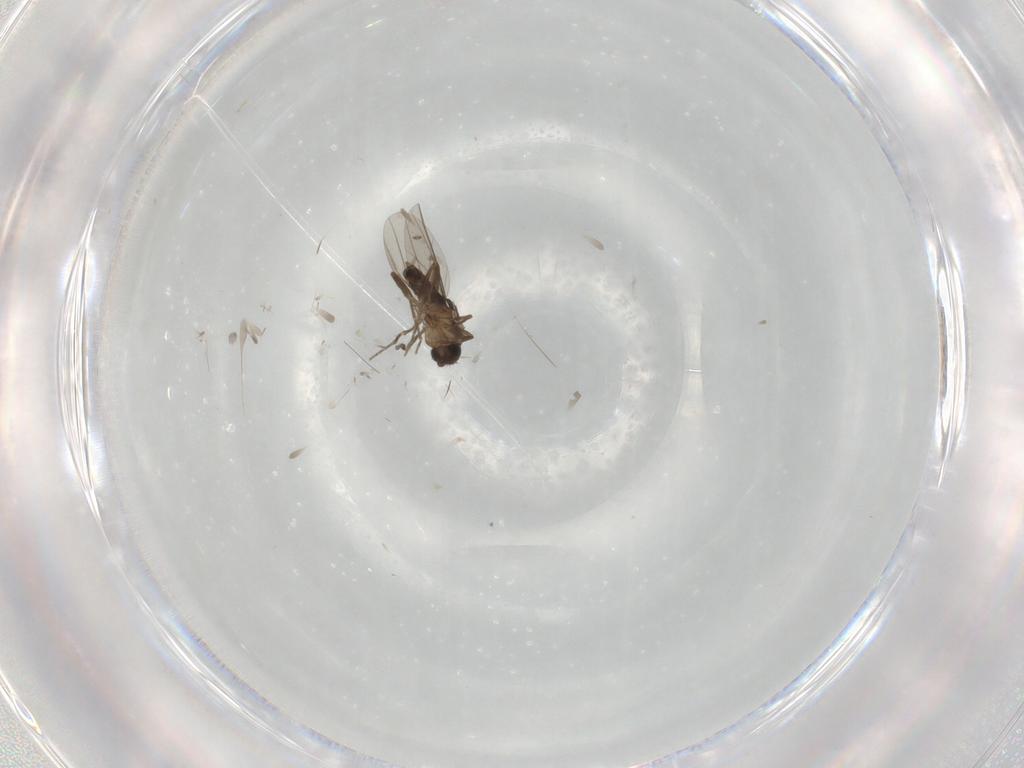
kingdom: Animalia
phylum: Arthropoda
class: Insecta
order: Diptera
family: Phoridae
